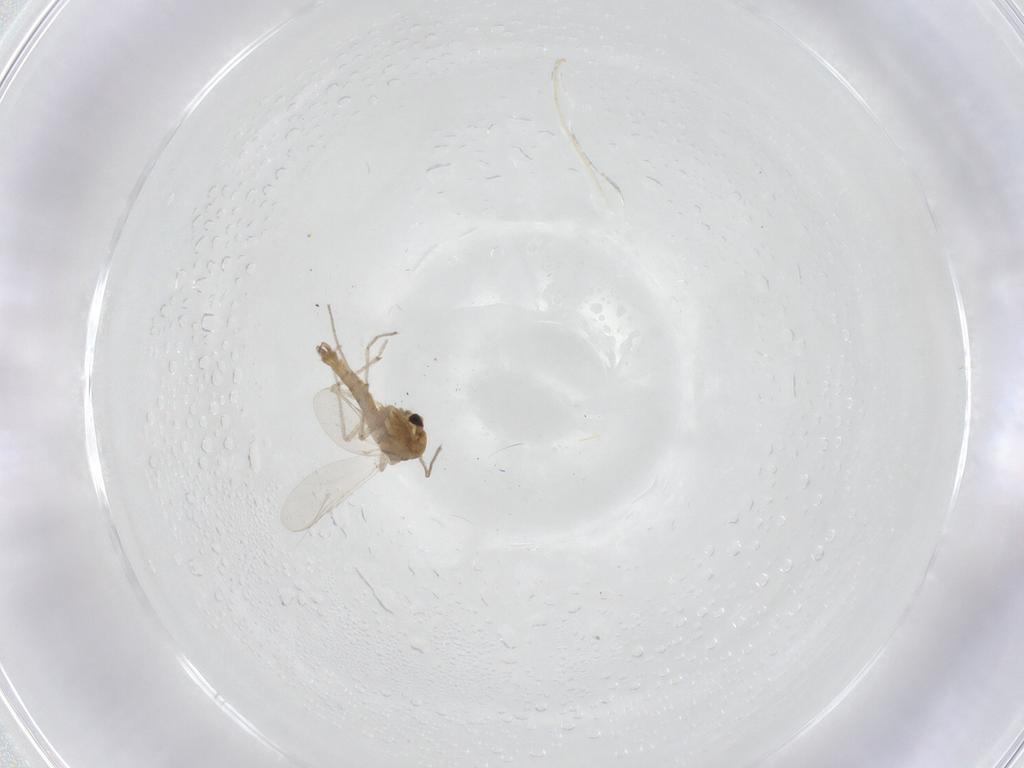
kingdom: Animalia
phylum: Arthropoda
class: Insecta
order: Diptera
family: Chironomidae
